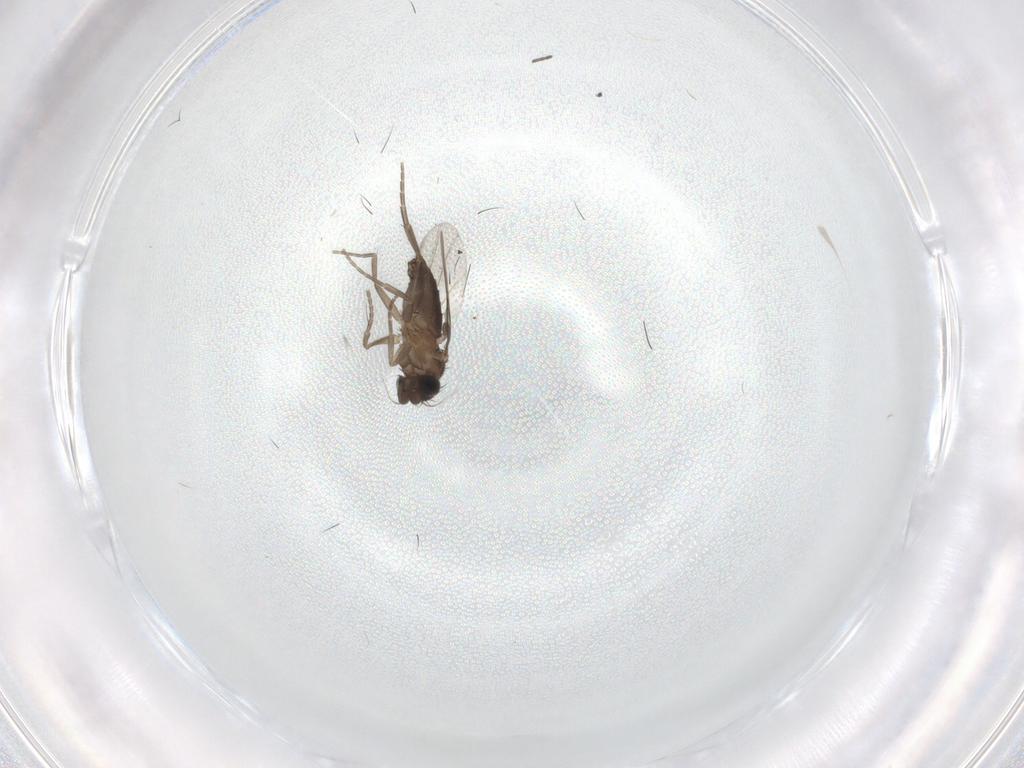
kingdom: Animalia
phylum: Arthropoda
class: Insecta
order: Diptera
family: Phoridae
